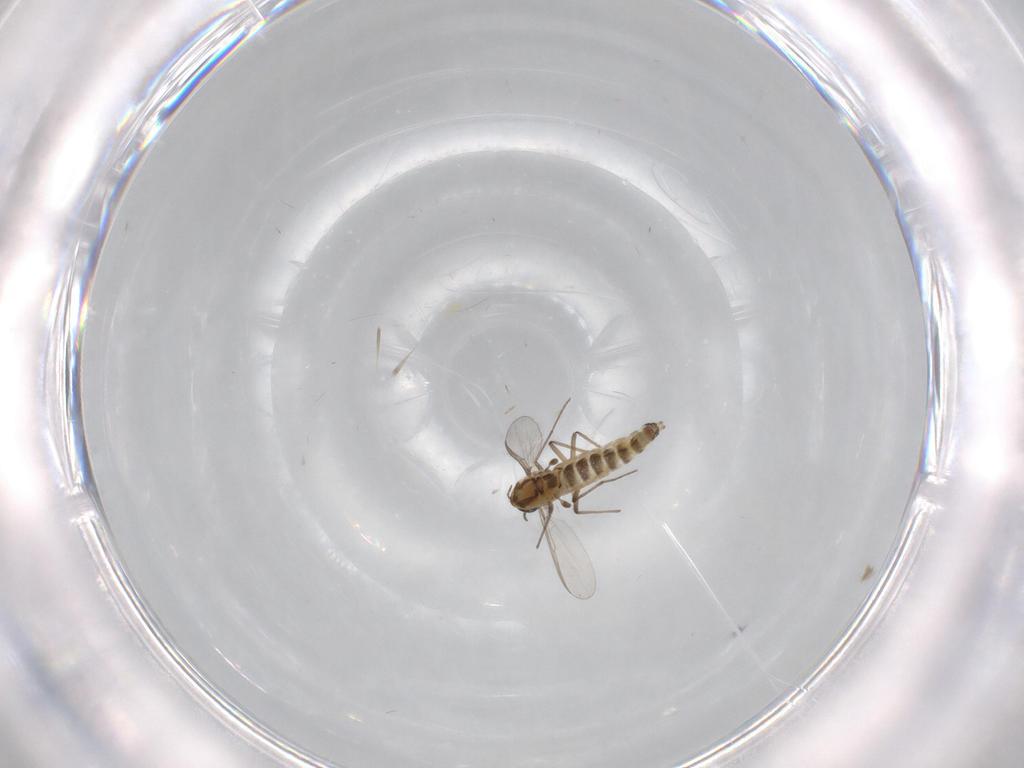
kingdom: Animalia
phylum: Arthropoda
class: Insecta
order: Diptera
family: Chironomidae
